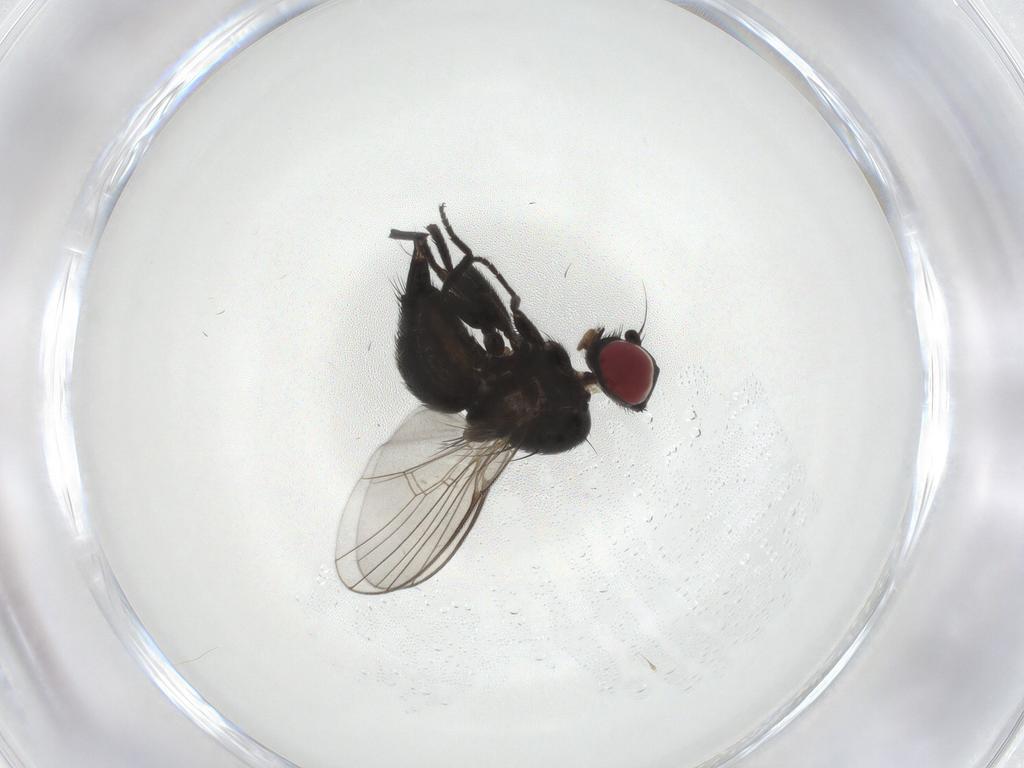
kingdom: Animalia
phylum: Arthropoda
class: Insecta
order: Diptera
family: Agromyzidae
